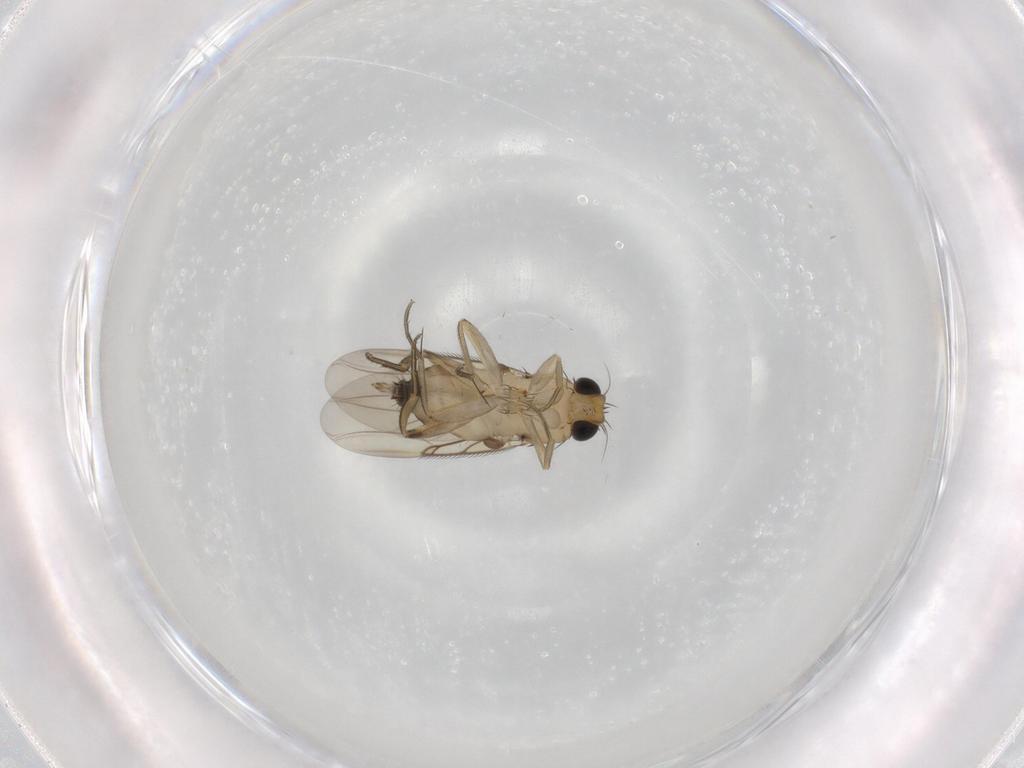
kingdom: Animalia
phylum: Arthropoda
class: Insecta
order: Diptera
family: Phoridae
